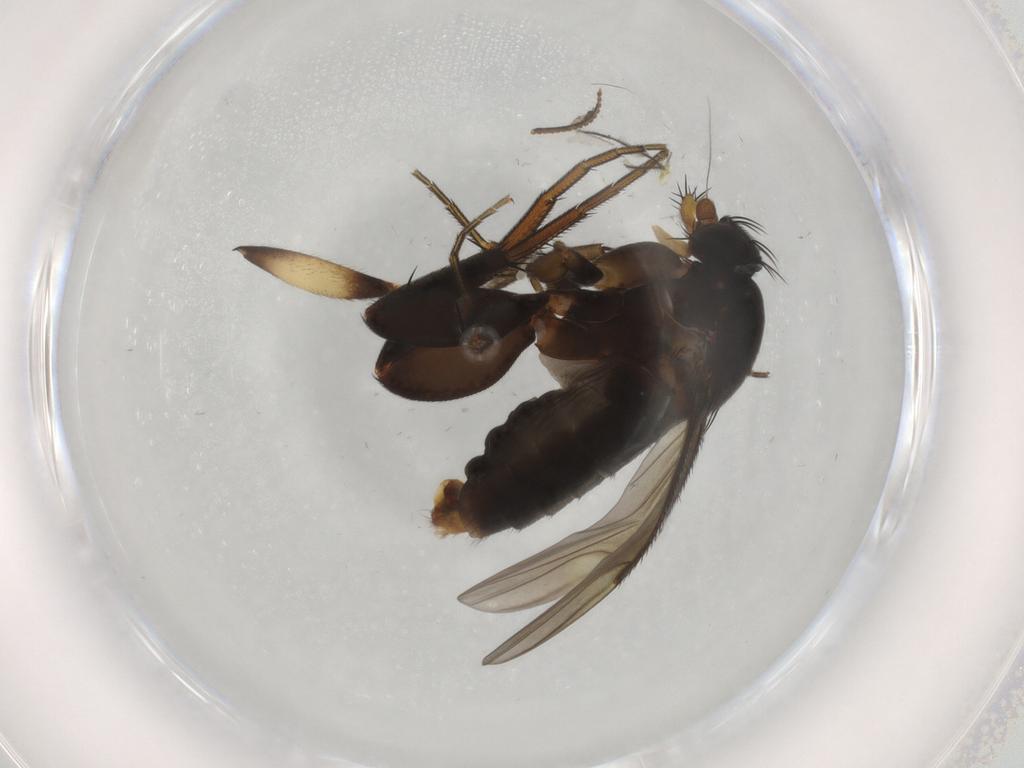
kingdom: Animalia
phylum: Arthropoda
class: Insecta
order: Diptera
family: Chironomidae
